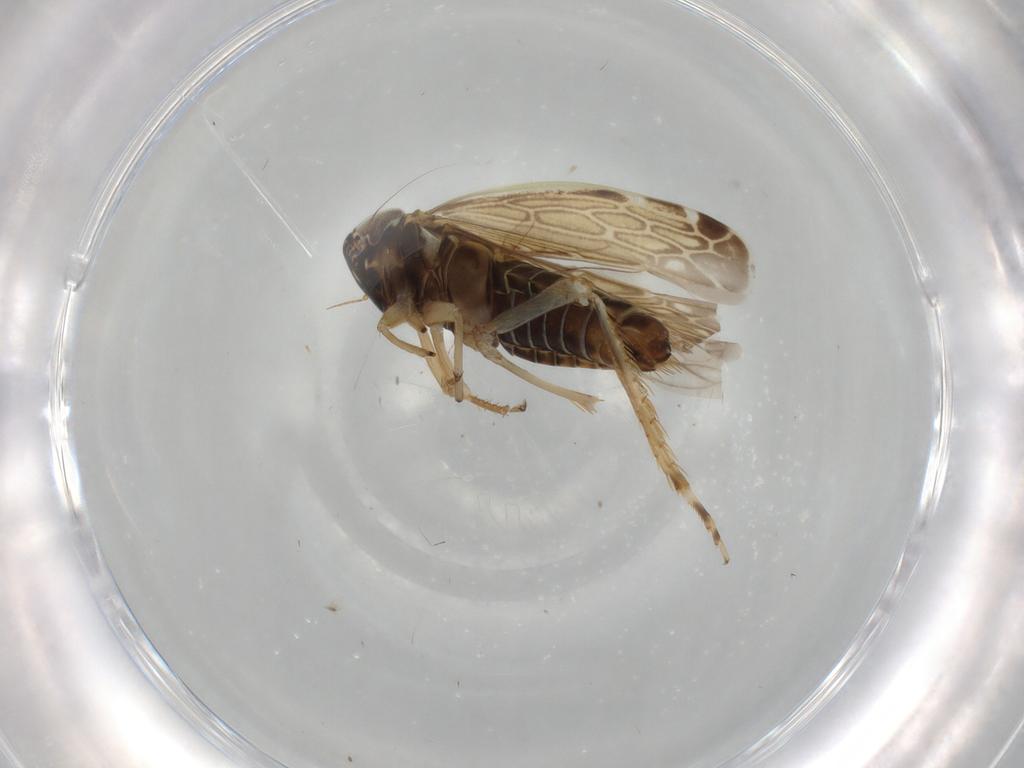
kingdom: Animalia
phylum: Arthropoda
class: Insecta
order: Hemiptera
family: Cicadellidae
